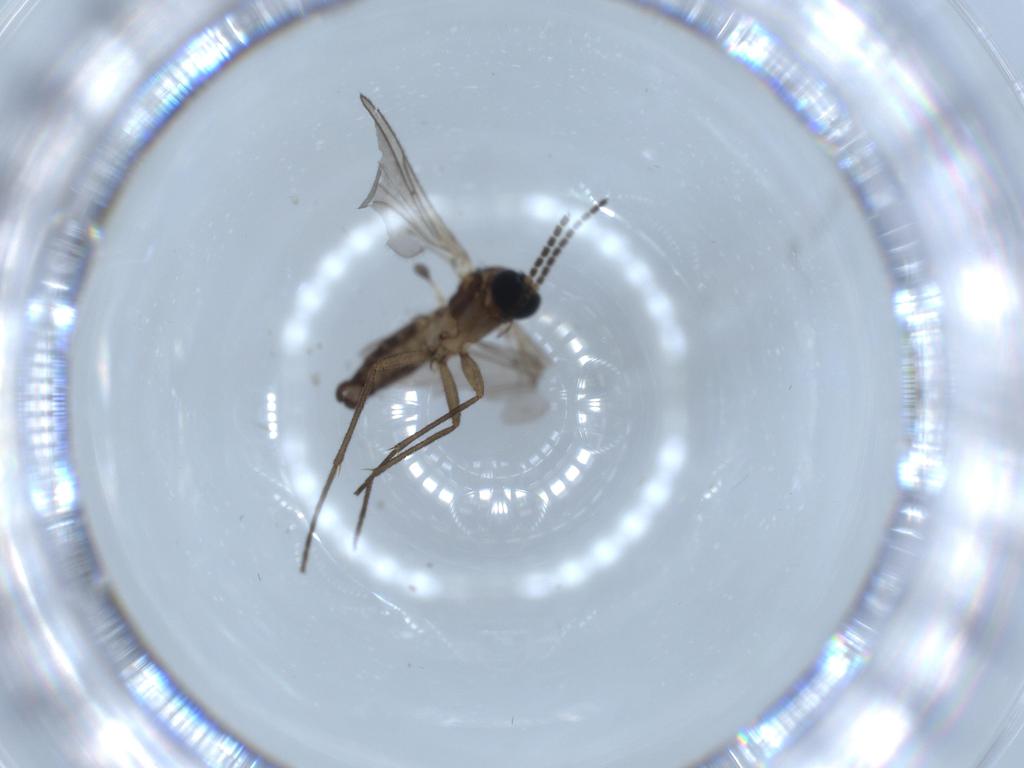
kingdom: Animalia
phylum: Arthropoda
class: Insecta
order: Diptera
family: Sciaridae
